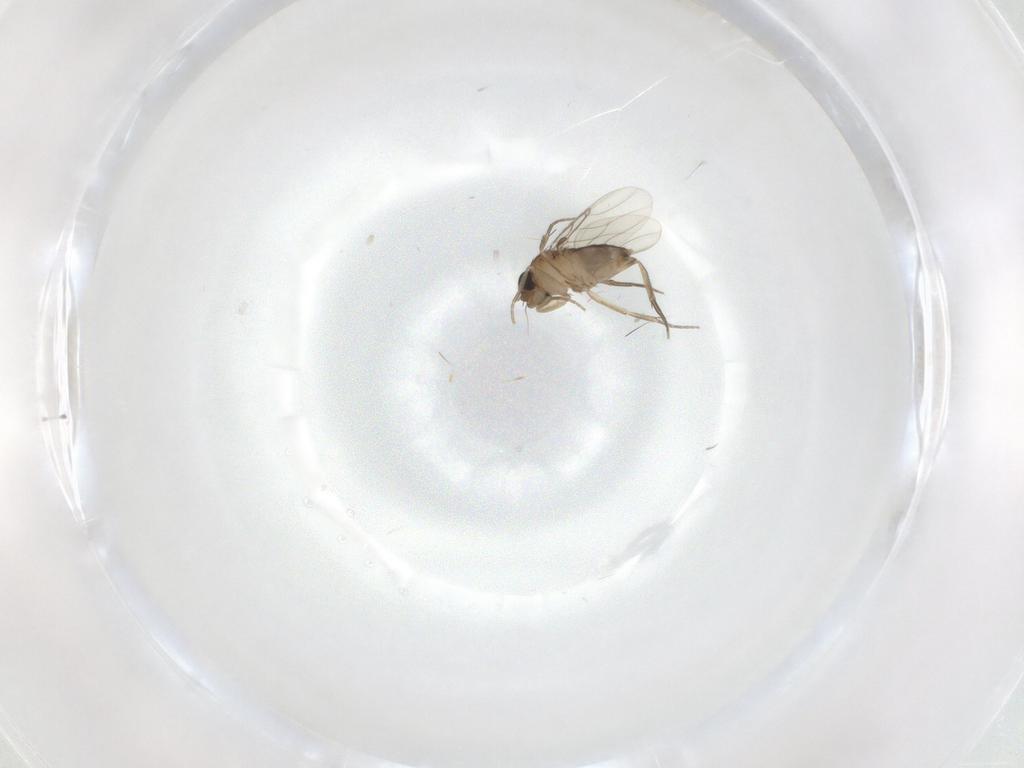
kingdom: Animalia
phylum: Arthropoda
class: Insecta
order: Diptera
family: Phoridae
